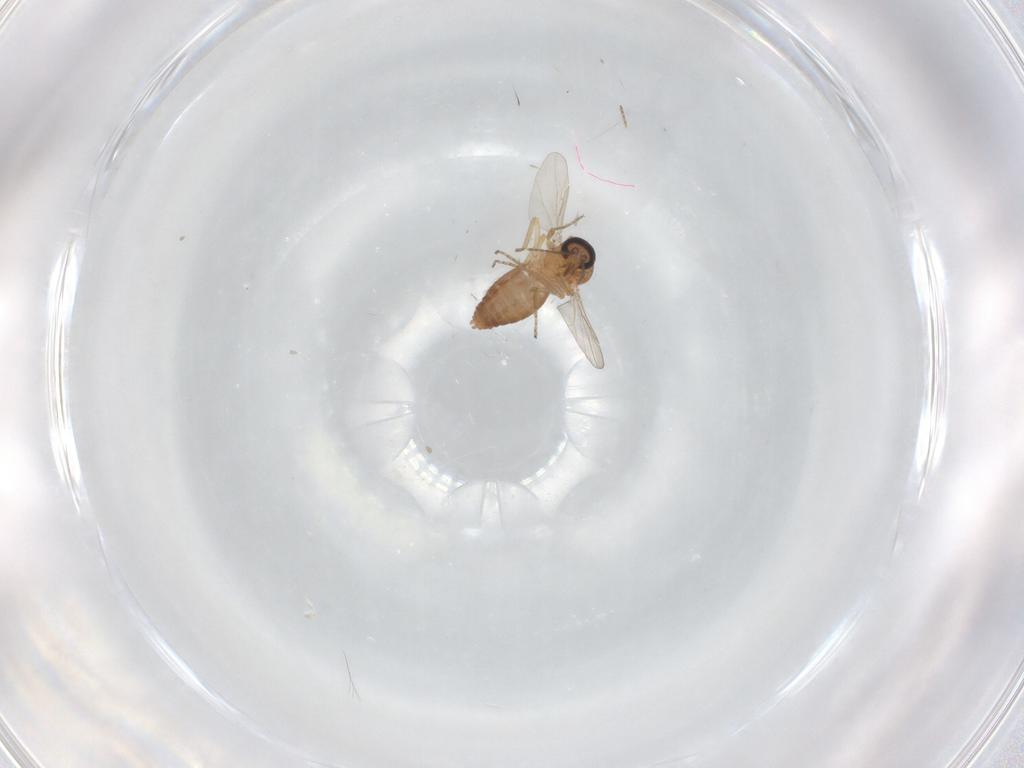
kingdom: Animalia
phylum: Arthropoda
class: Insecta
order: Diptera
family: Ceratopogonidae
